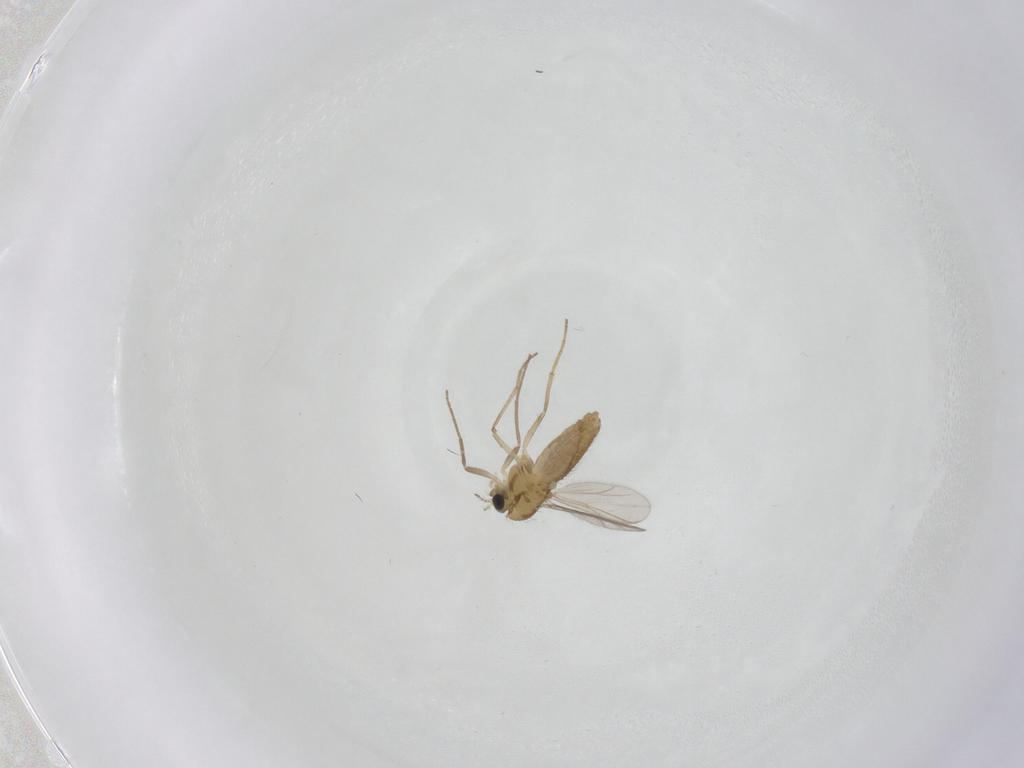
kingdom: Animalia
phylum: Arthropoda
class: Insecta
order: Diptera
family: Chironomidae
